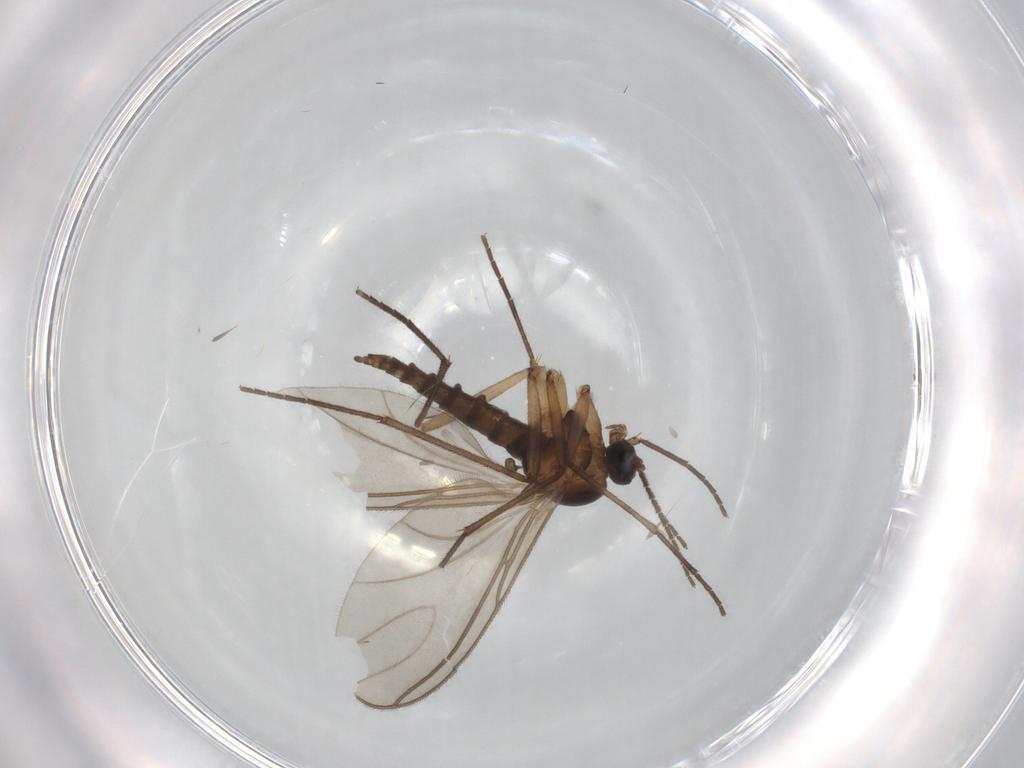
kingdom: Animalia
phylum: Arthropoda
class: Insecta
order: Diptera
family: Sciaridae
